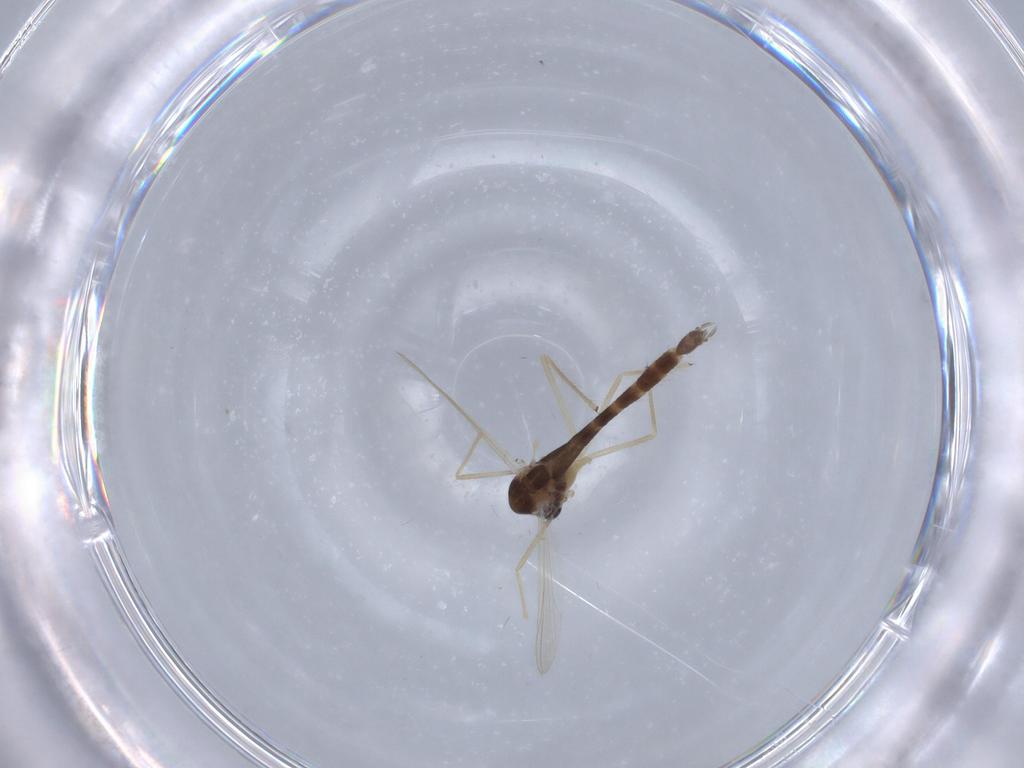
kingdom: Animalia
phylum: Arthropoda
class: Insecta
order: Diptera
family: Chironomidae
